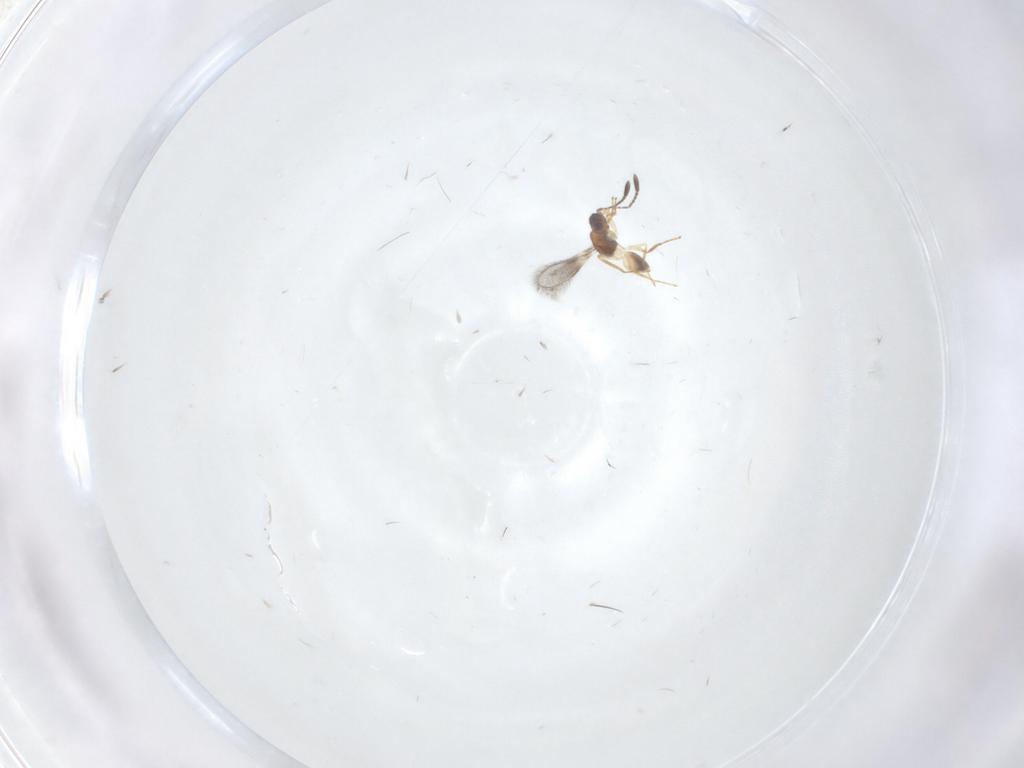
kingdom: Animalia
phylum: Arthropoda
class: Insecta
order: Hymenoptera
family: Mymaridae
